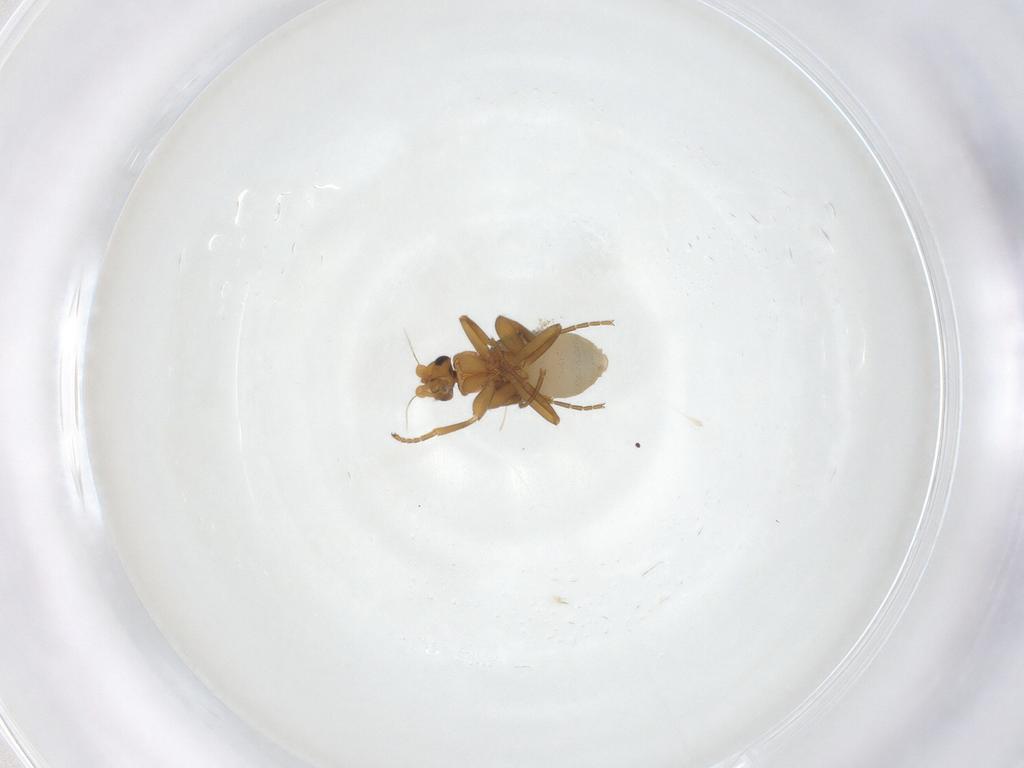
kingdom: Animalia
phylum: Arthropoda
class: Insecta
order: Diptera
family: Phoridae
